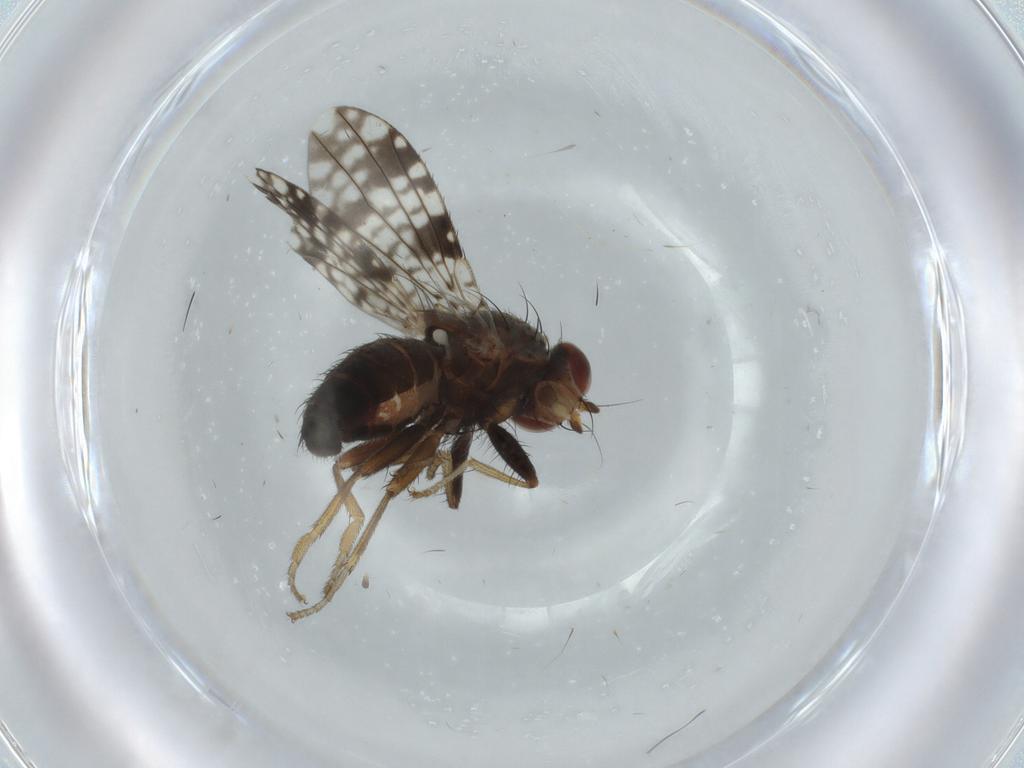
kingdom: Animalia
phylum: Arthropoda
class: Insecta
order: Diptera
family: Tephritidae
